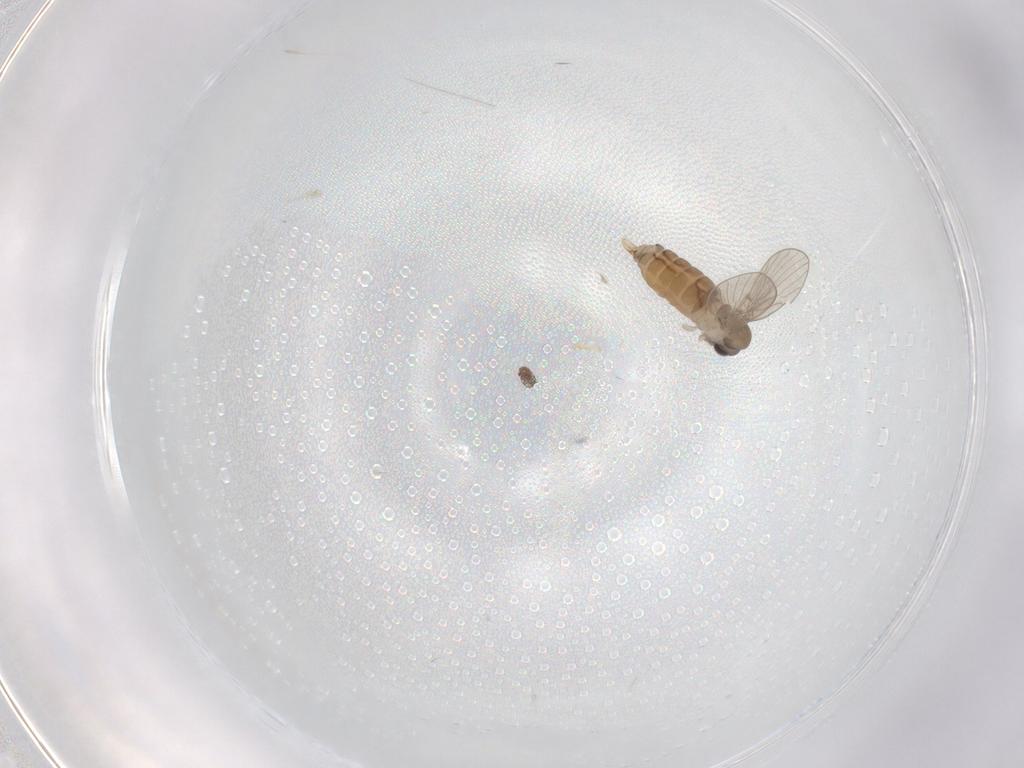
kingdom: Animalia
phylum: Arthropoda
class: Insecta
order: Diptera
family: Psychodidae
